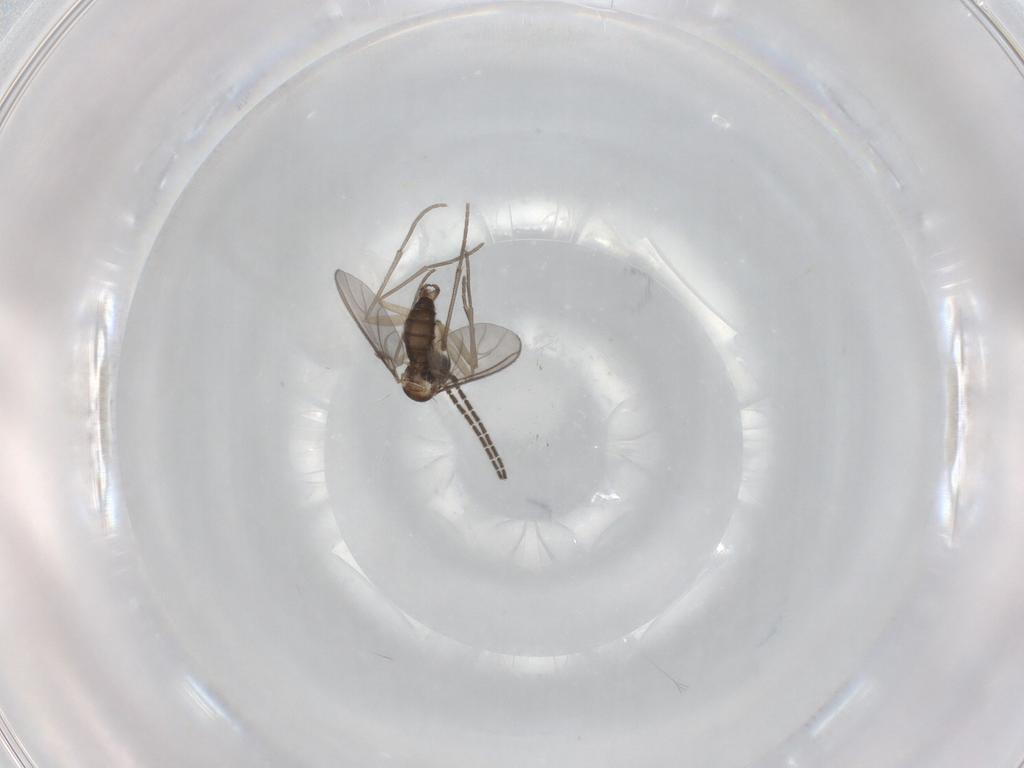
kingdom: Animalia
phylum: Arthropoda
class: Insecta
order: Diptera
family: Sciaridae
